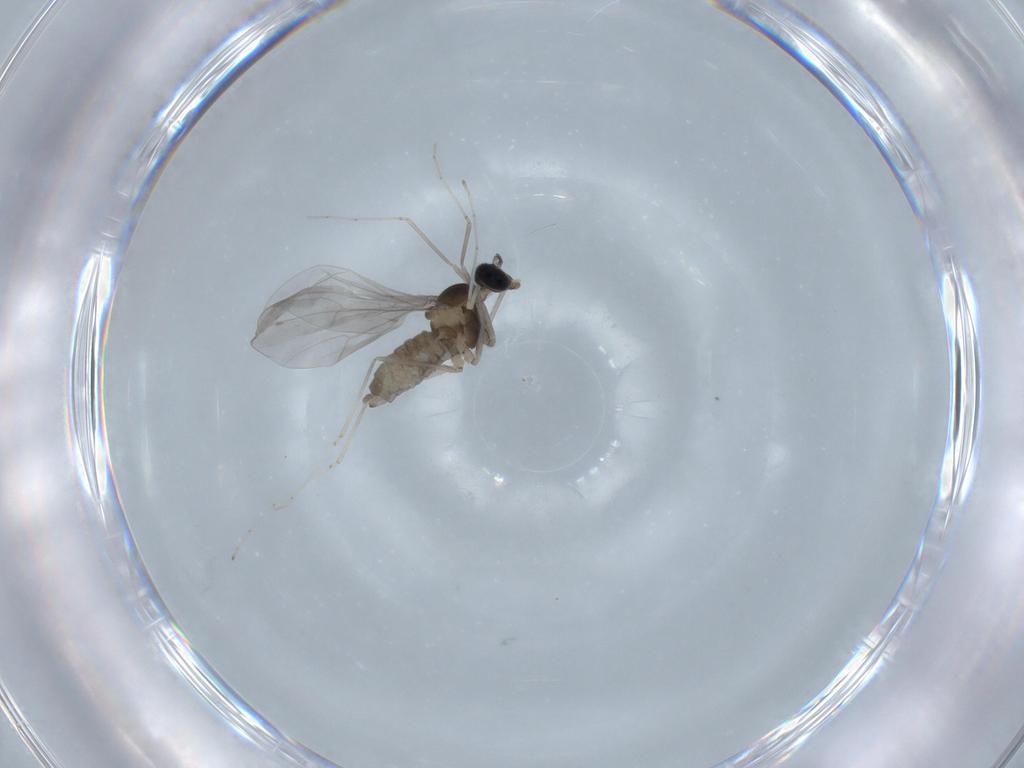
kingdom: Animalia
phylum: Arthropoda
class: Insecta
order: Diptera
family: Cecidomyiidae
